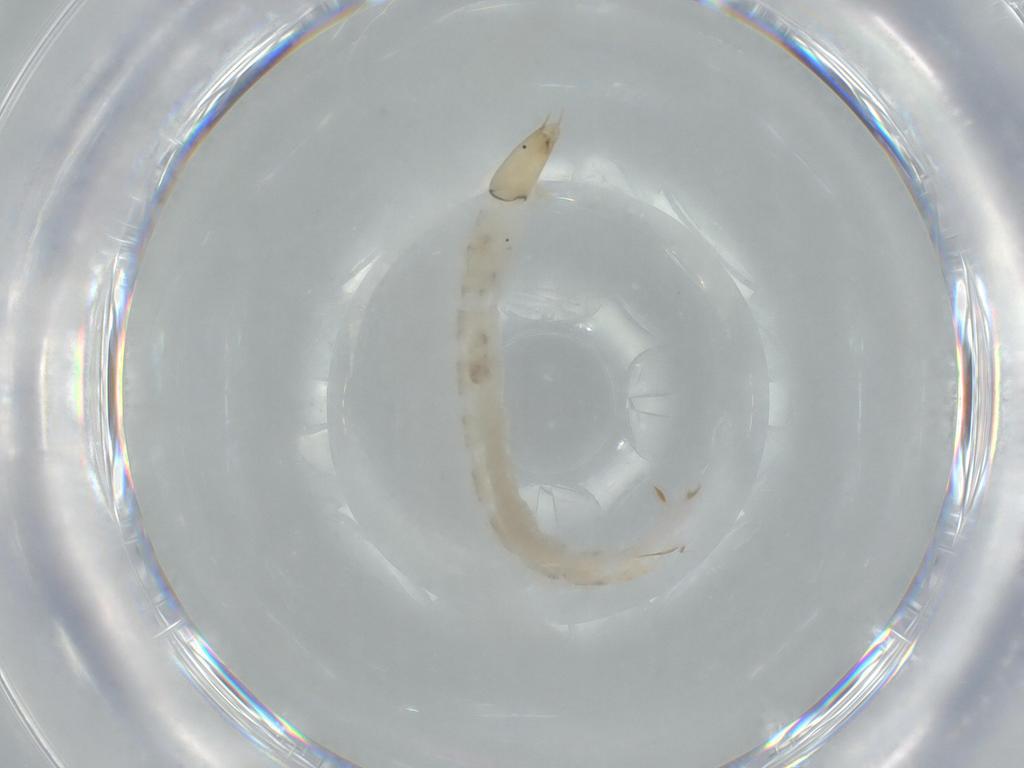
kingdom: Animalia
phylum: Arthropoda
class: Insecta
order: Diptera
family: Chironomidae
